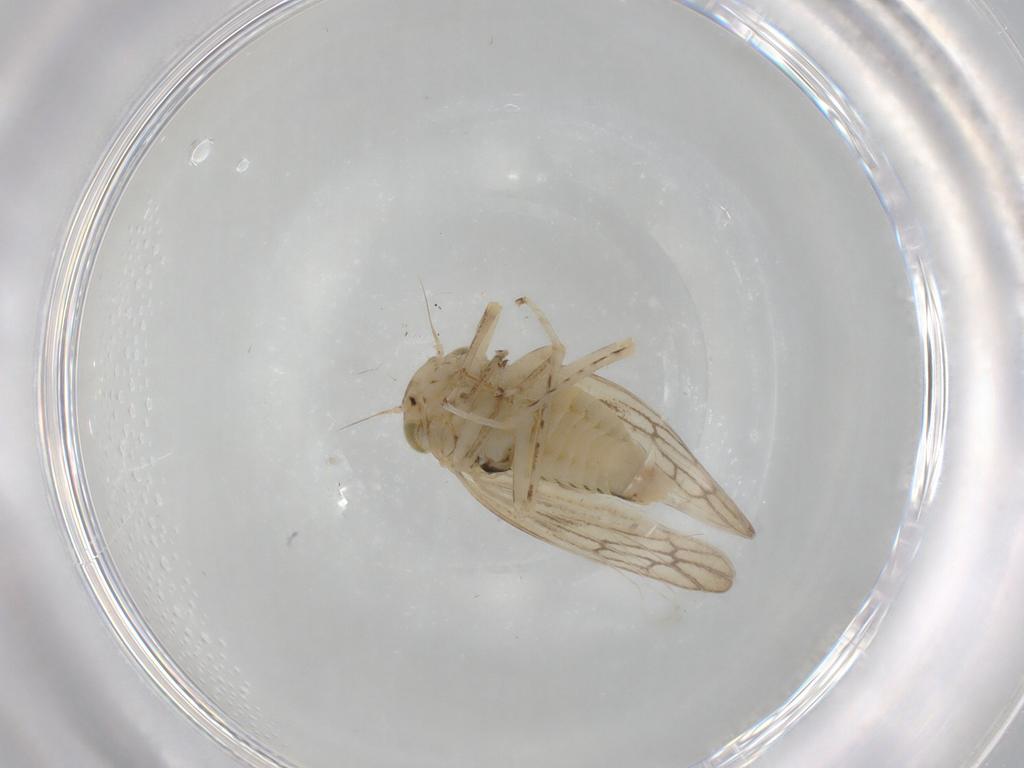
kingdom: Animalia
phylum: Arthropoda
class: Insecta
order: Hemiptera
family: Cicadellidae
